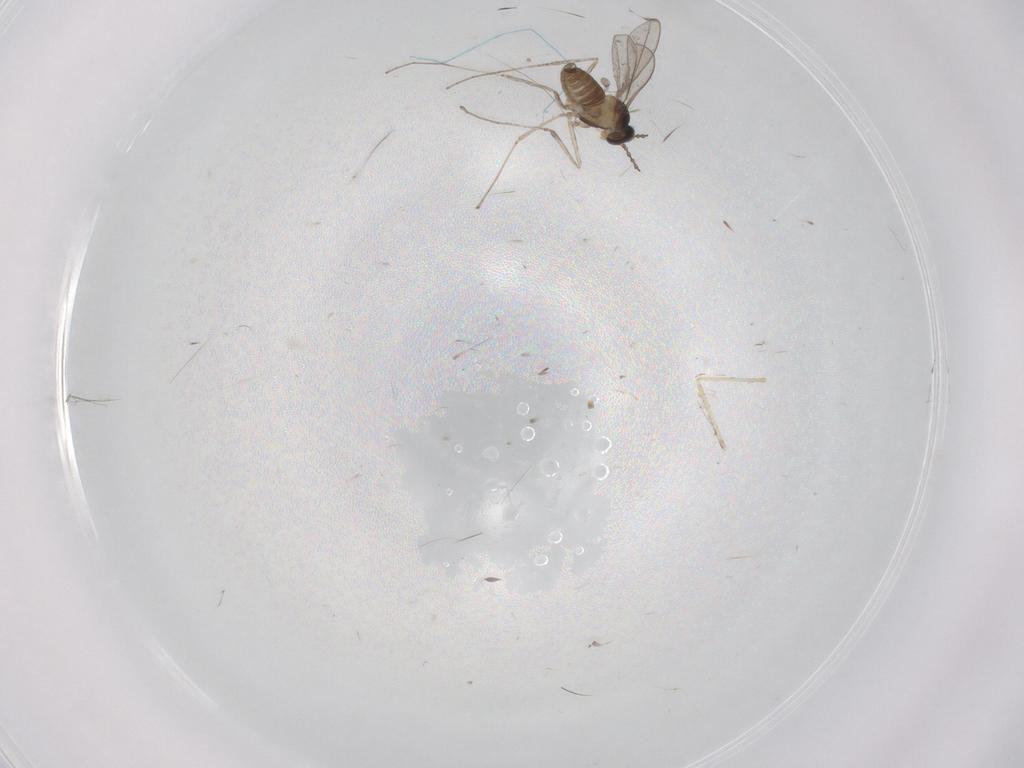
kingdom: Animalia
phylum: Arthropoda
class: Insecta
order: Diptera
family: Cecidomyiidae
